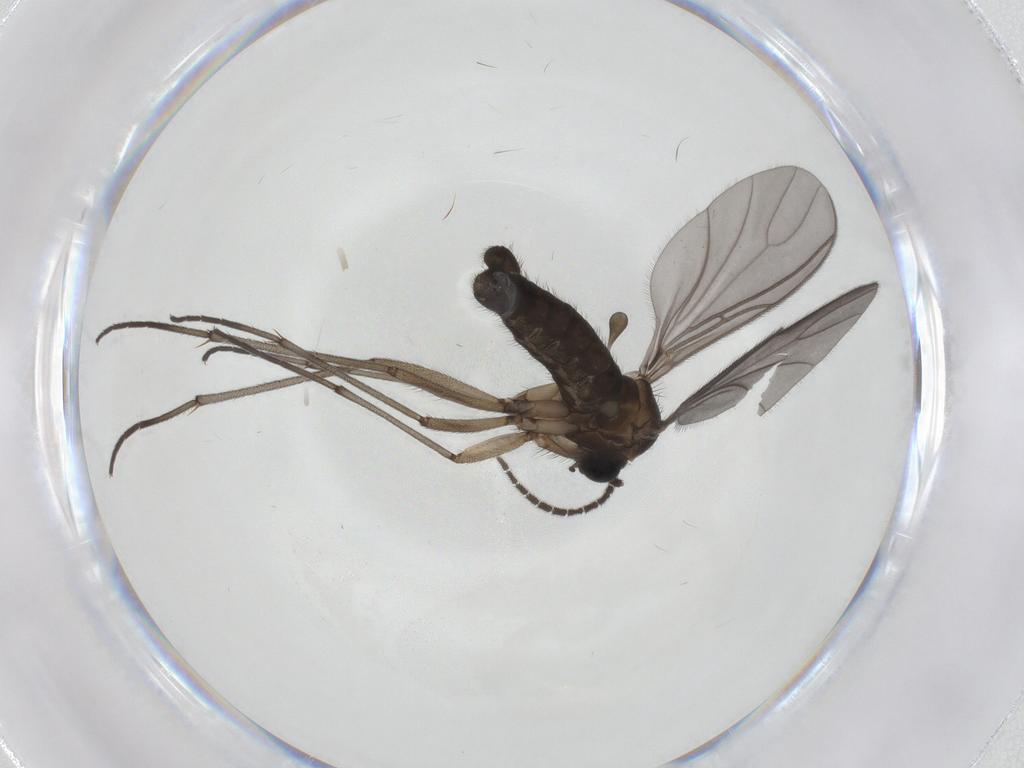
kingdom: Animalia
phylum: Arthropoda
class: Insecta
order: Diptera
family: Sciaridae
